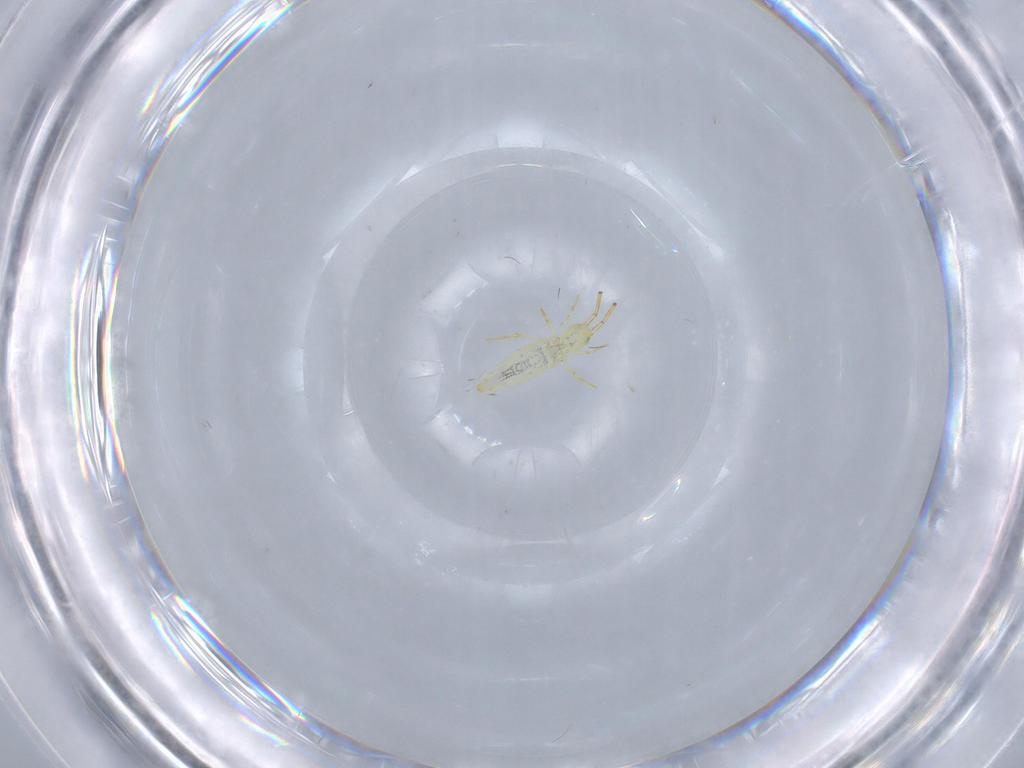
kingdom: Animalia
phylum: Arthropoda
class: Collembola
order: Entomobryomorpha
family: Entomobryidae
